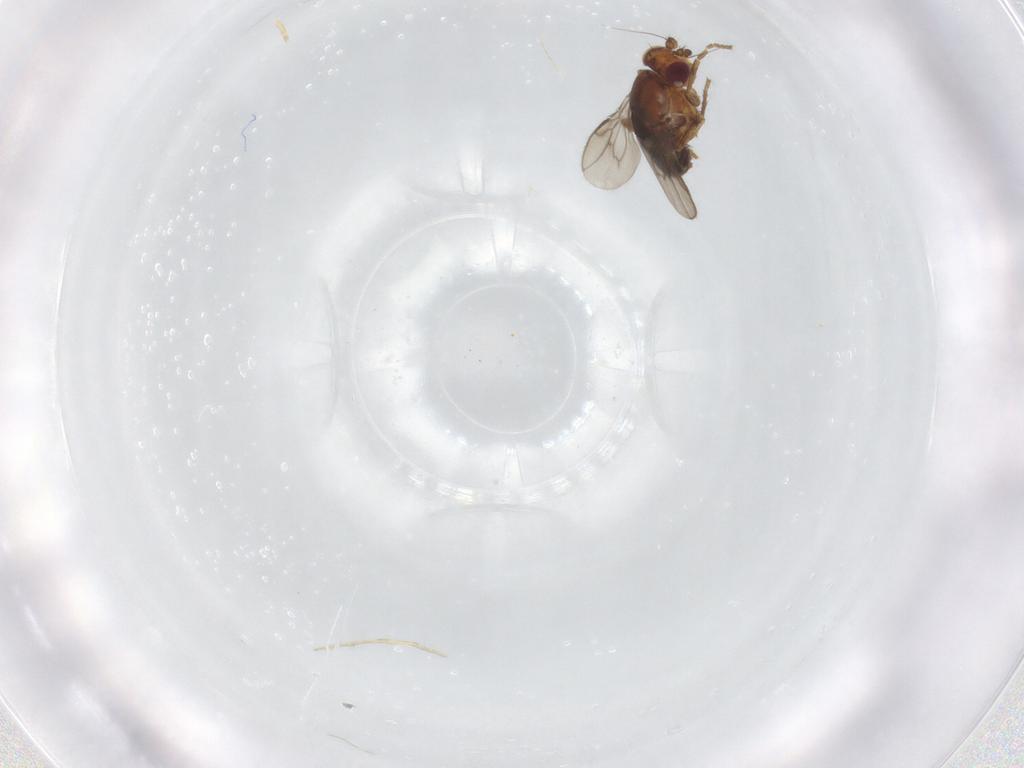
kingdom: Animalia
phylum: Arthropoda
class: Insecta
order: Diptera
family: Sphaeroceridae
